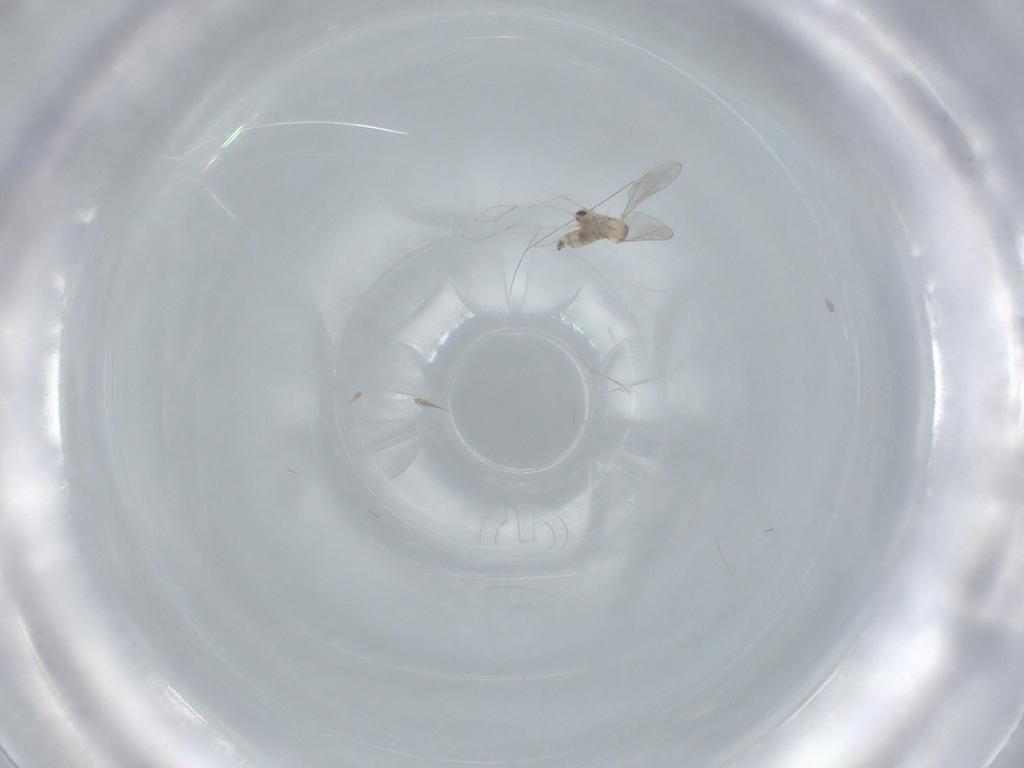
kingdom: Animalia
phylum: Arthropoda
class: Insecta
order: Diptera
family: Cecidomyiidae
